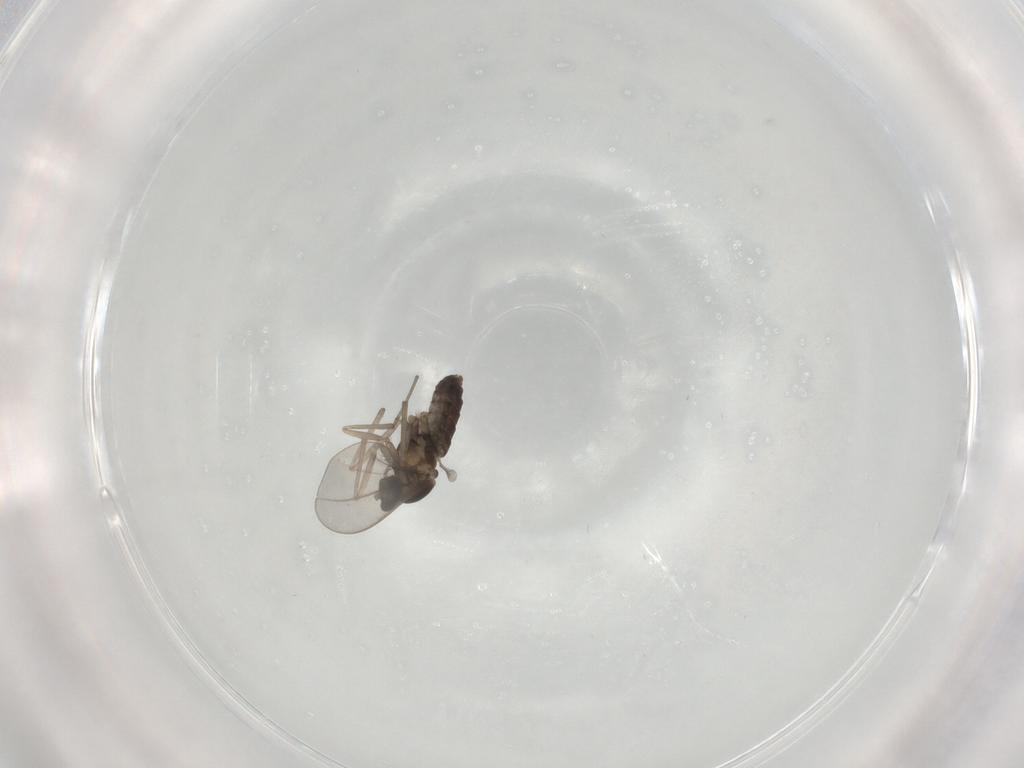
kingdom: Animalia
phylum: Arthropoda
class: Insecta
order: Diptera
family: Cecidomyiidae
